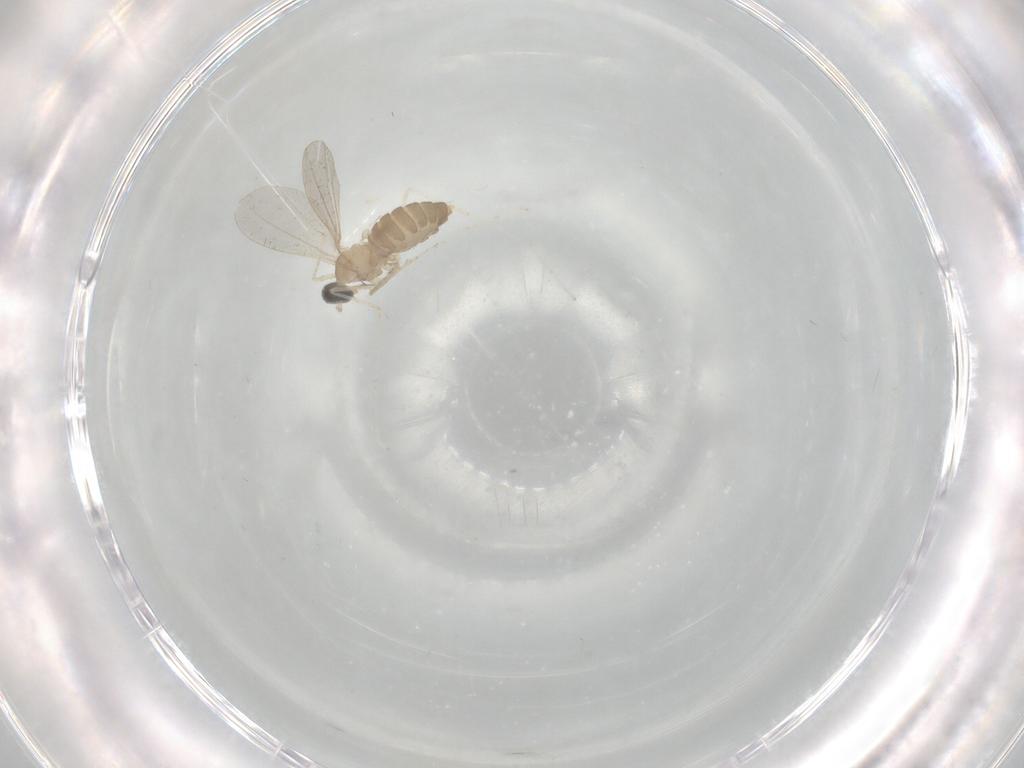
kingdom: Animalia
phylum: Arthropoda
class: Insecta
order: Diptera
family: Cecidomyiidae
